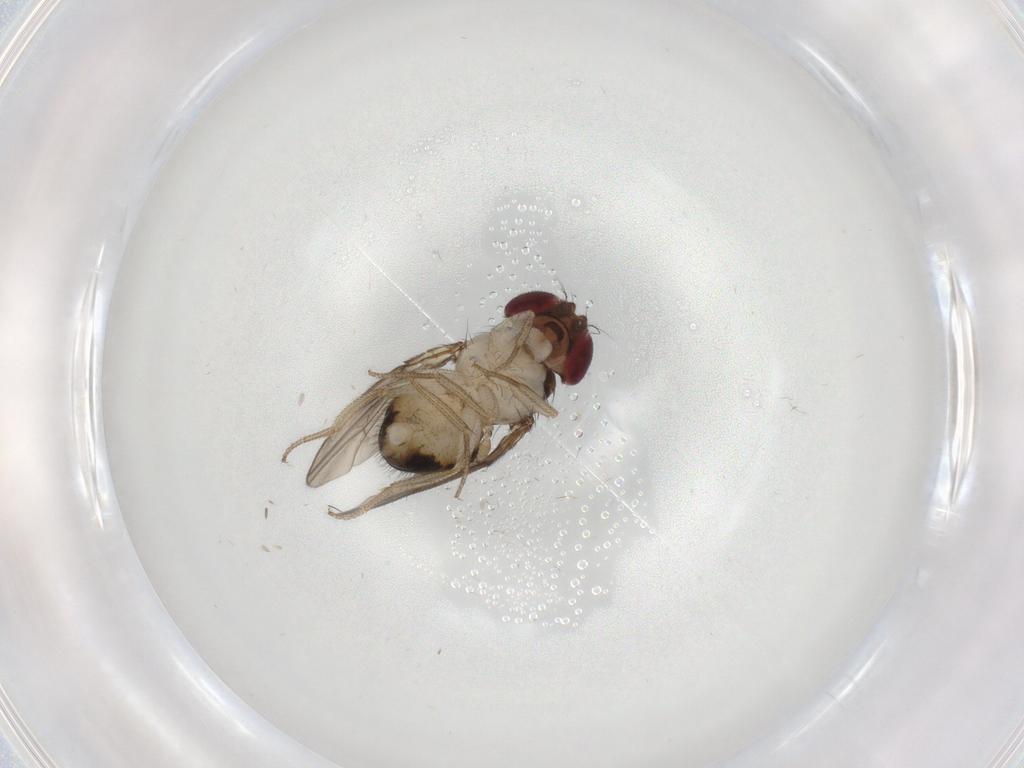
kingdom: Animalia
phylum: Arthropoda
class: Insecta
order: Diptera
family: Drosophilidae
